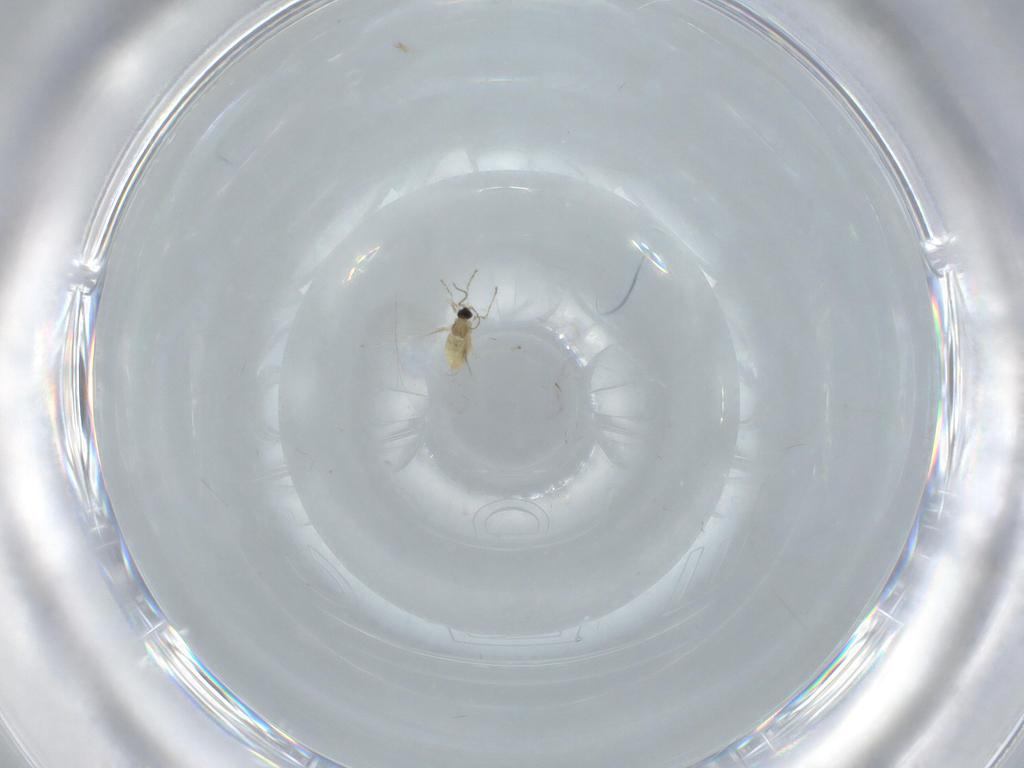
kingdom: Animalia
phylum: Arthropoda
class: Insecta
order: Diptera
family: Cecidomyiidae
